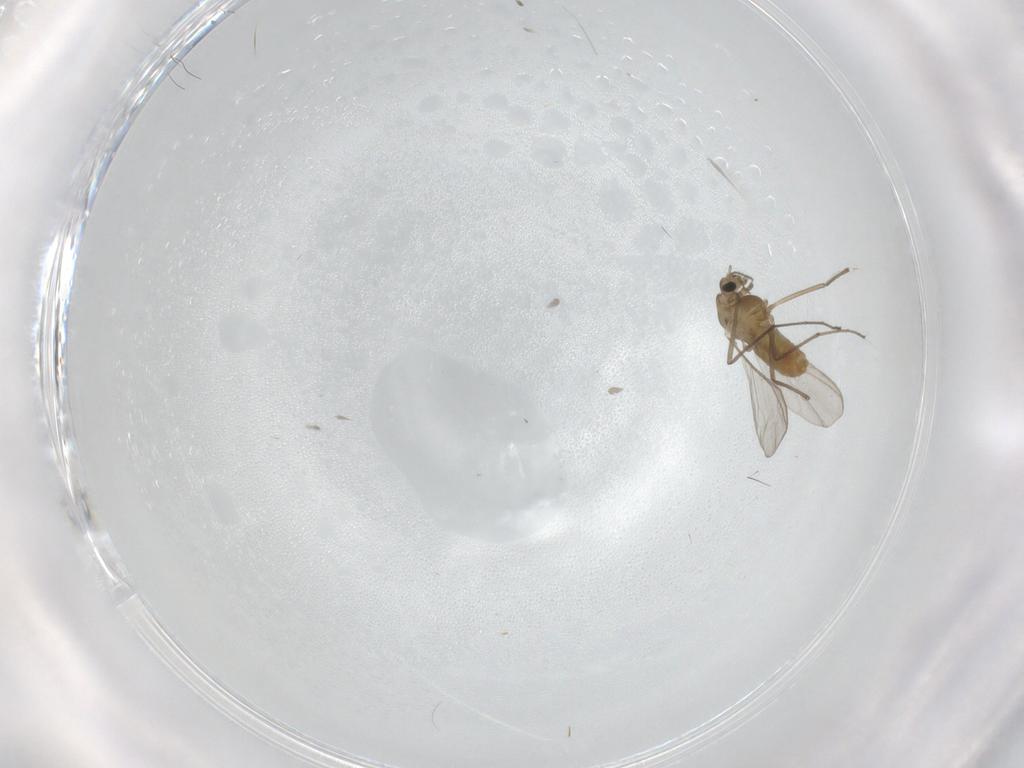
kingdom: Animalia
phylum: Arthropoda
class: Insecta
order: Diptera
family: Chironomidae
